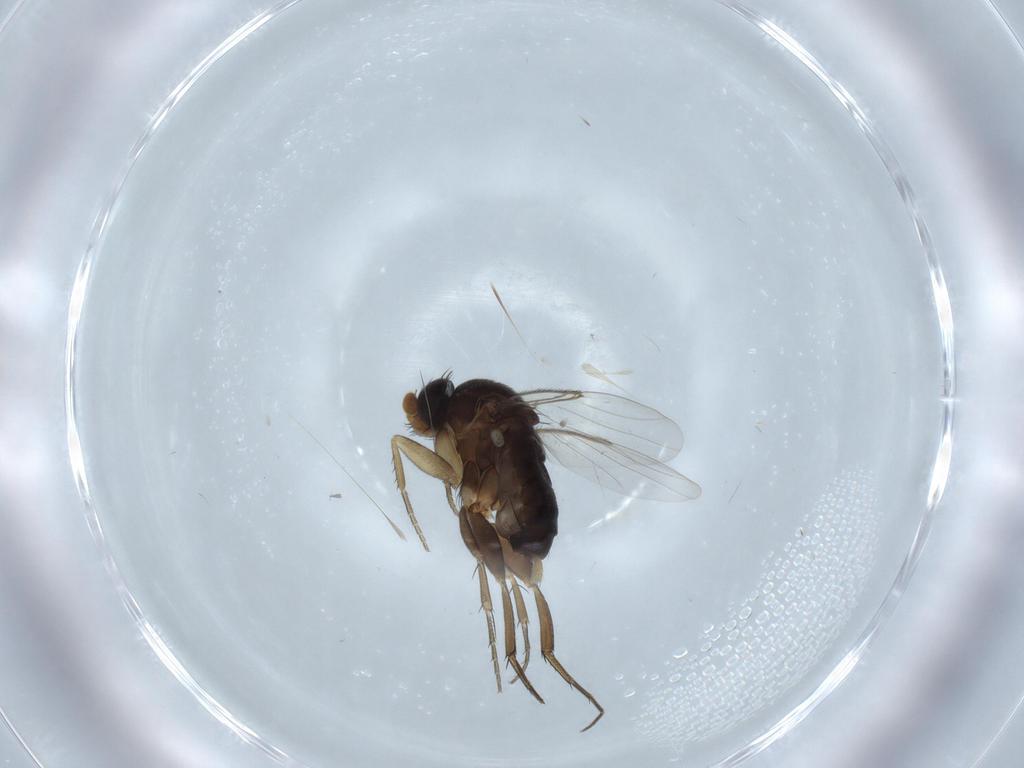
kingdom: Animalia
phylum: Arthropoda
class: Insecta
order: Diptera
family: Phoridae
